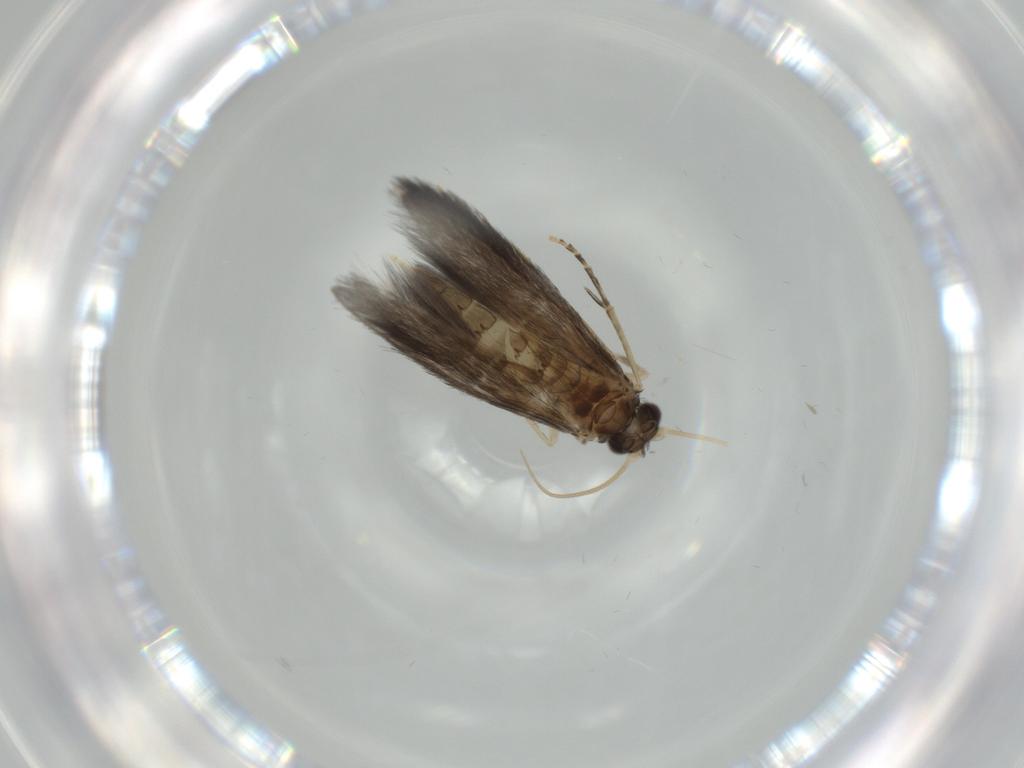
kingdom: Animalia
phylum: Arthropoda
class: Insecta
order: Trichoptera
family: Hydroptilidae
